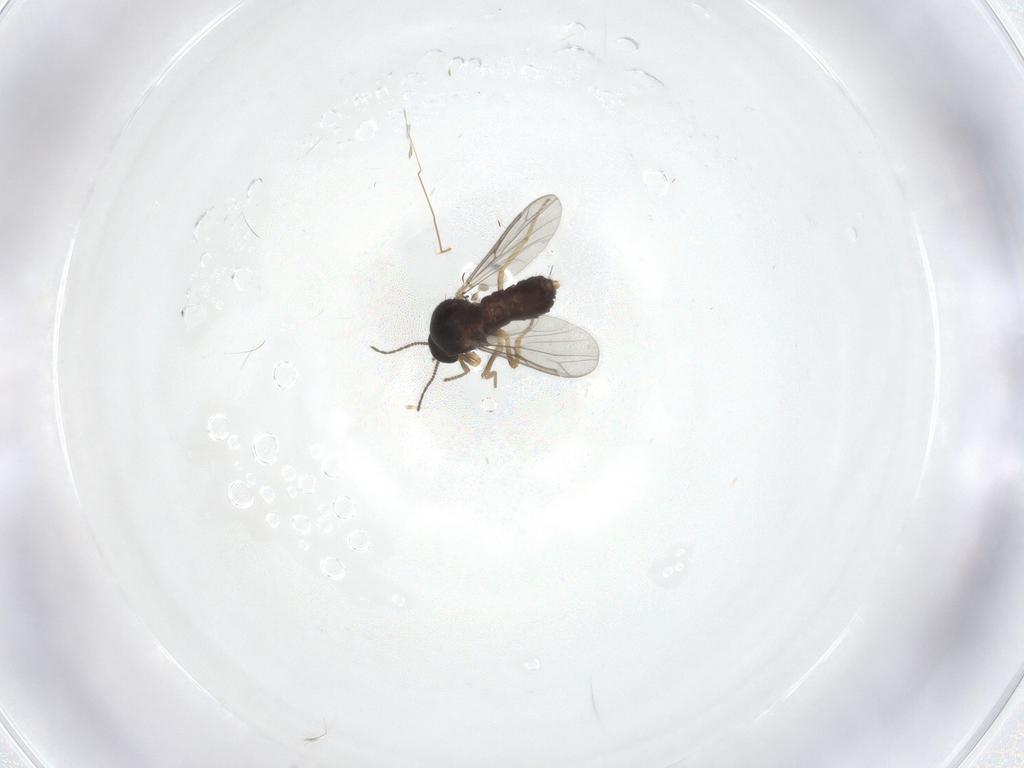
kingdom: Animalia
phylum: Arthropoda
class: Insecta
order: Diptera
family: Ceratopogonidae
